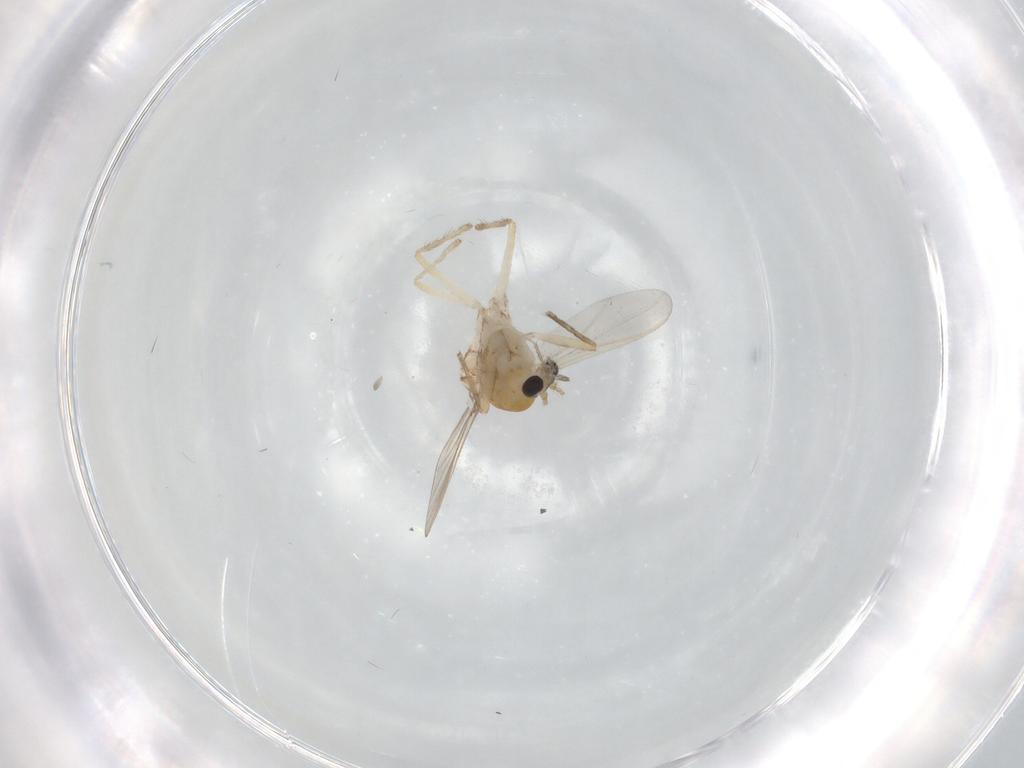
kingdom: Animalia
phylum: Arthropoda
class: Insecta
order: Diptera
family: Chironomidae
